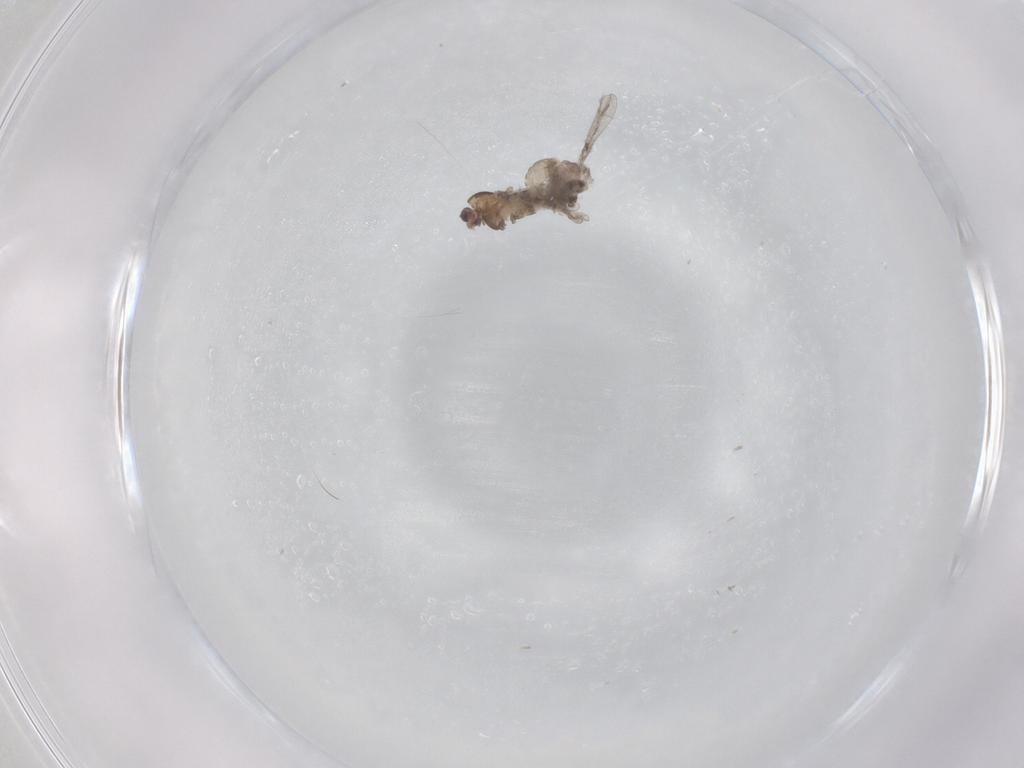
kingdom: Animalia
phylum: Arthropoda
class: Insecta
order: Diptera
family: Cecidomyiidae
